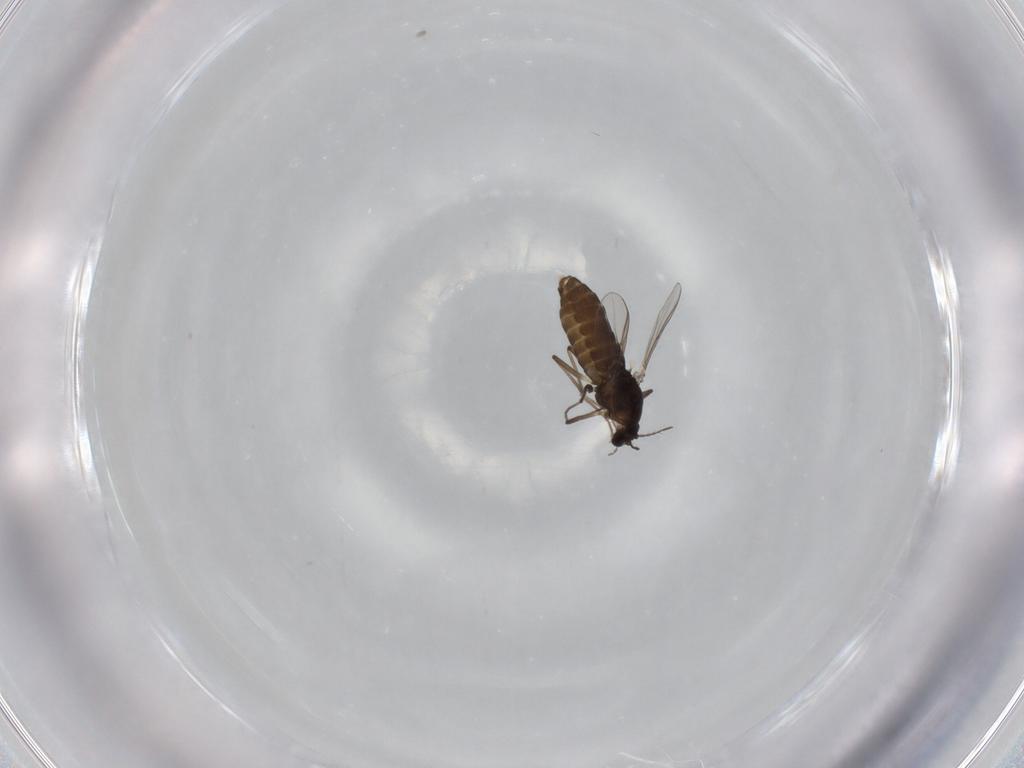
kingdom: Animalia
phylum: Arthropoda
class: Insecta
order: Diptera
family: Chironomidae
